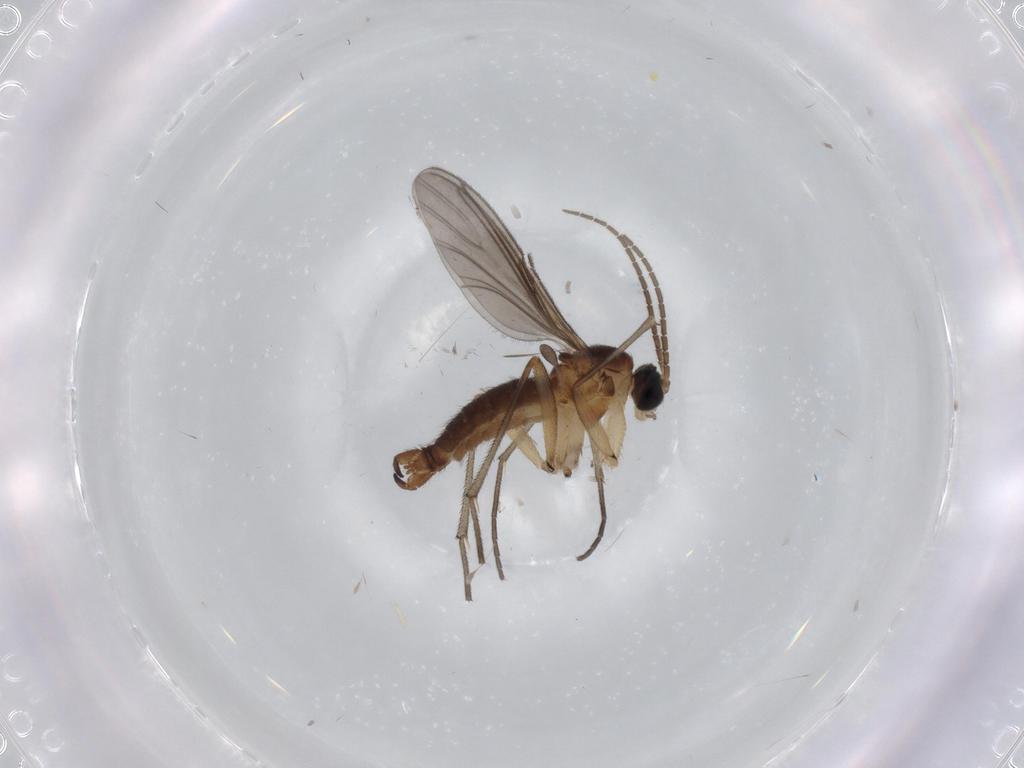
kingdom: Animalia
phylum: Arthropoda
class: Insecta
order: Diptera
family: Sciaridae
